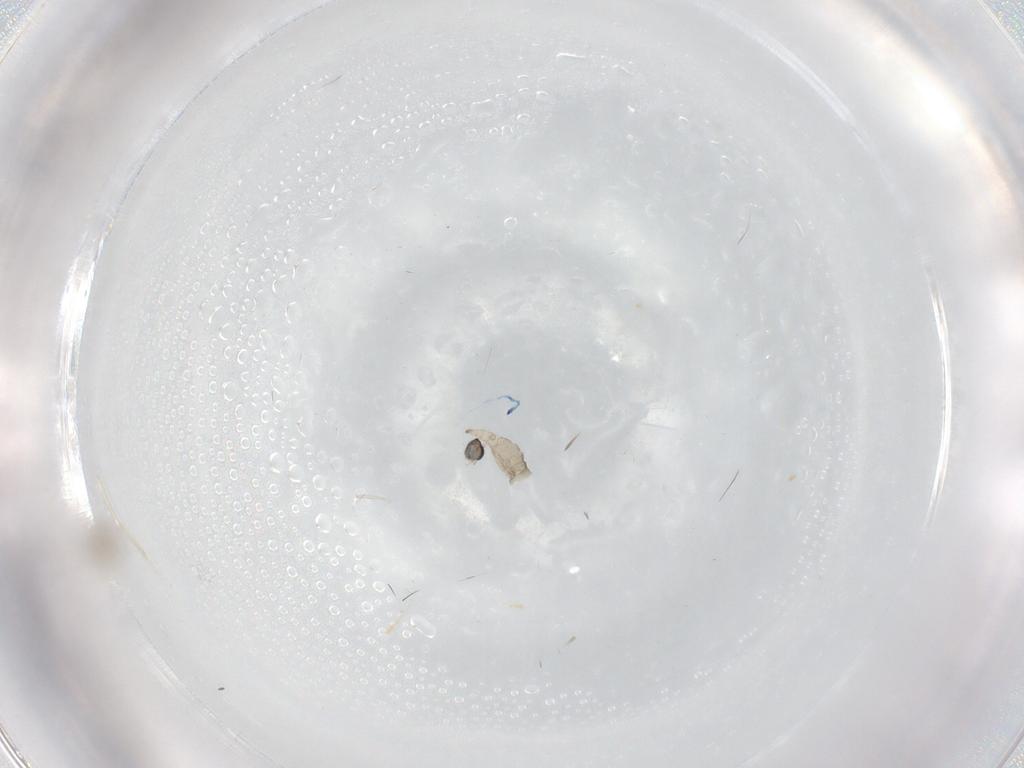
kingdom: Animalia
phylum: Arthropoda
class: Insecta
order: Diptera
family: Cecidomyiidae
